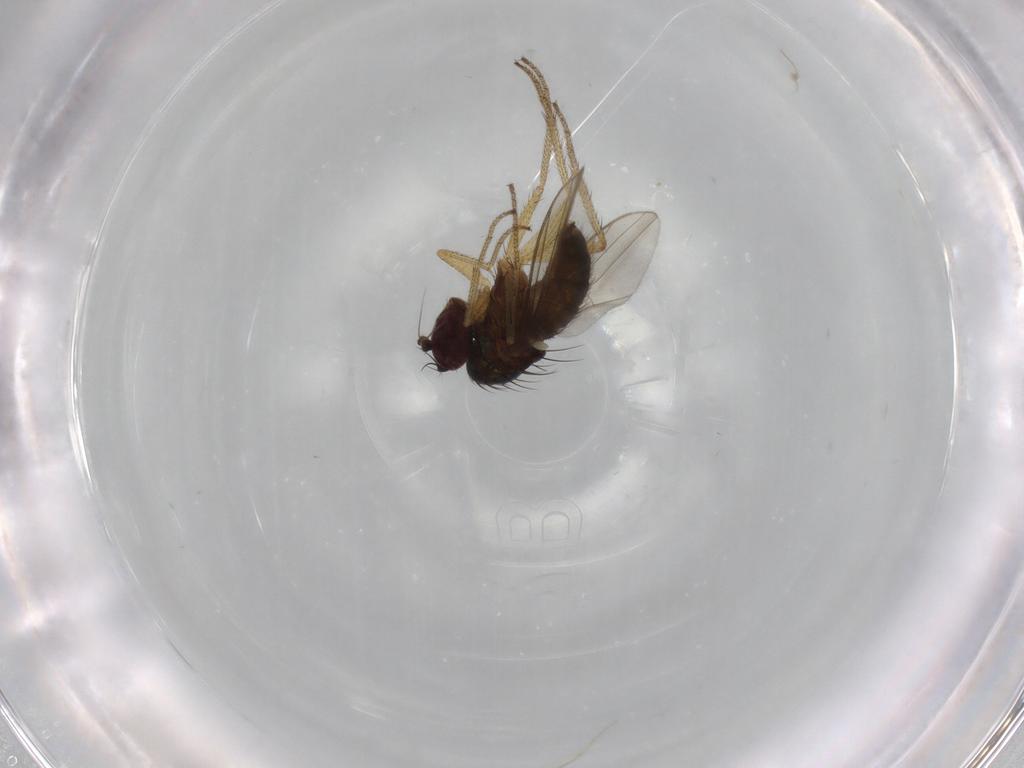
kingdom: Animalia
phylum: Arthropoda
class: Insecta
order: Diptera
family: Dolichopodidae
